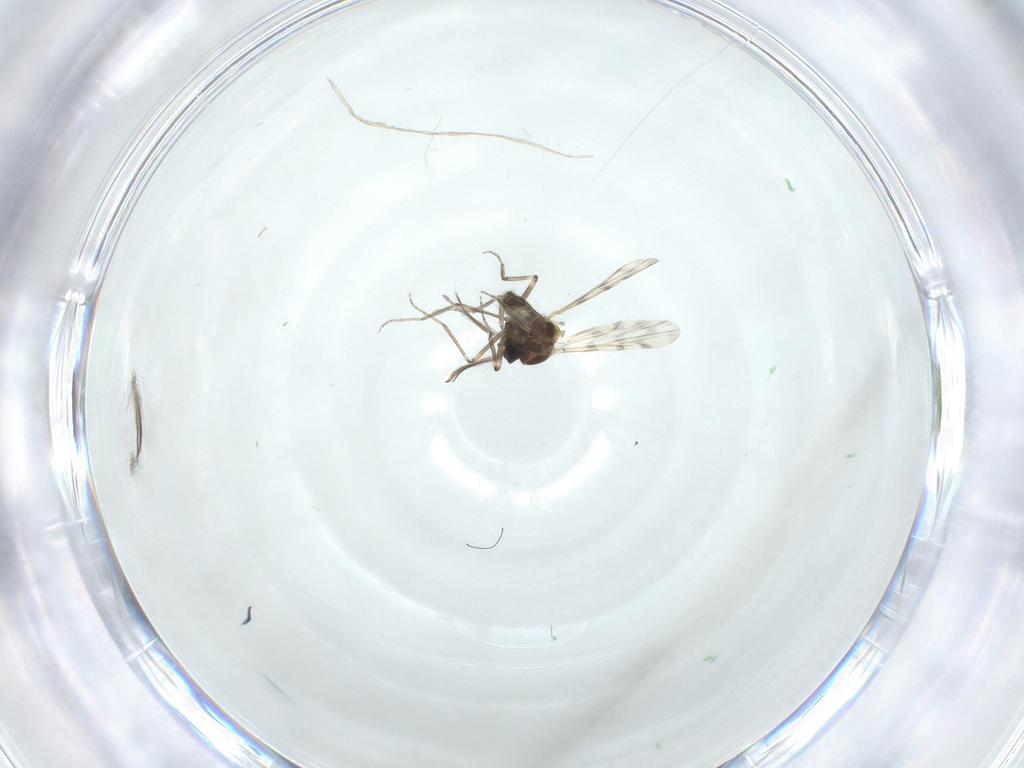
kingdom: Animalia
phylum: Arthropoda
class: Insecta
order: Diptera
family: Ceratopogonidae
